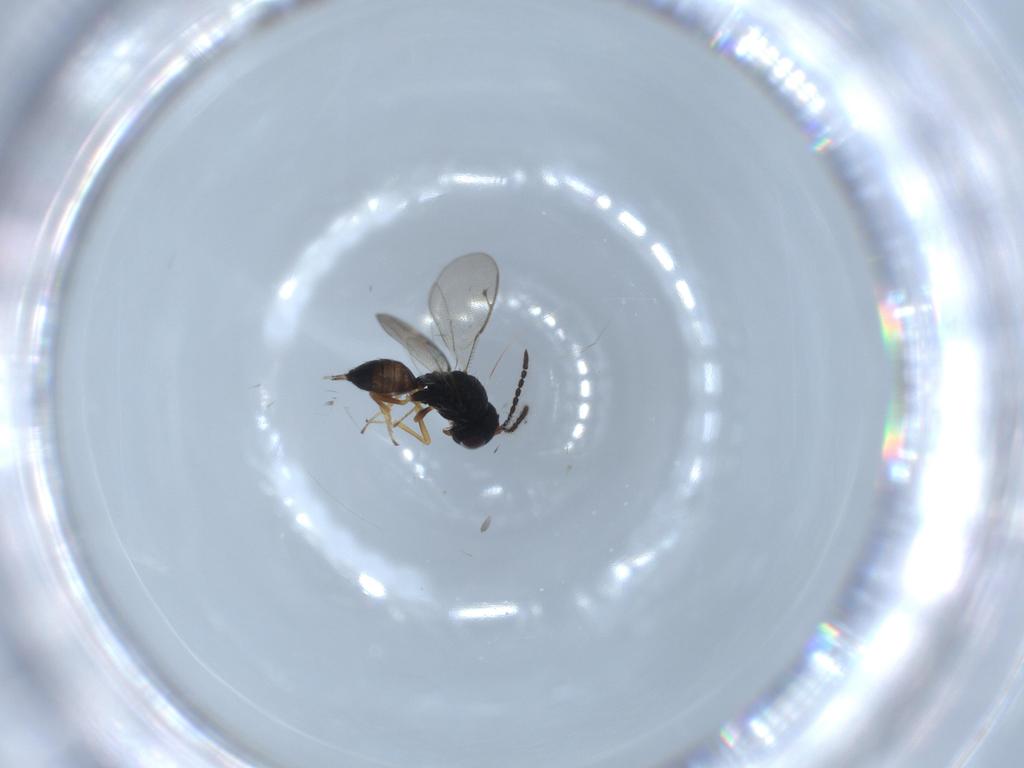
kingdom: Animalia
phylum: Arthropoda
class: Insecta
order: Hymenoptera
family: Pteromalidae
